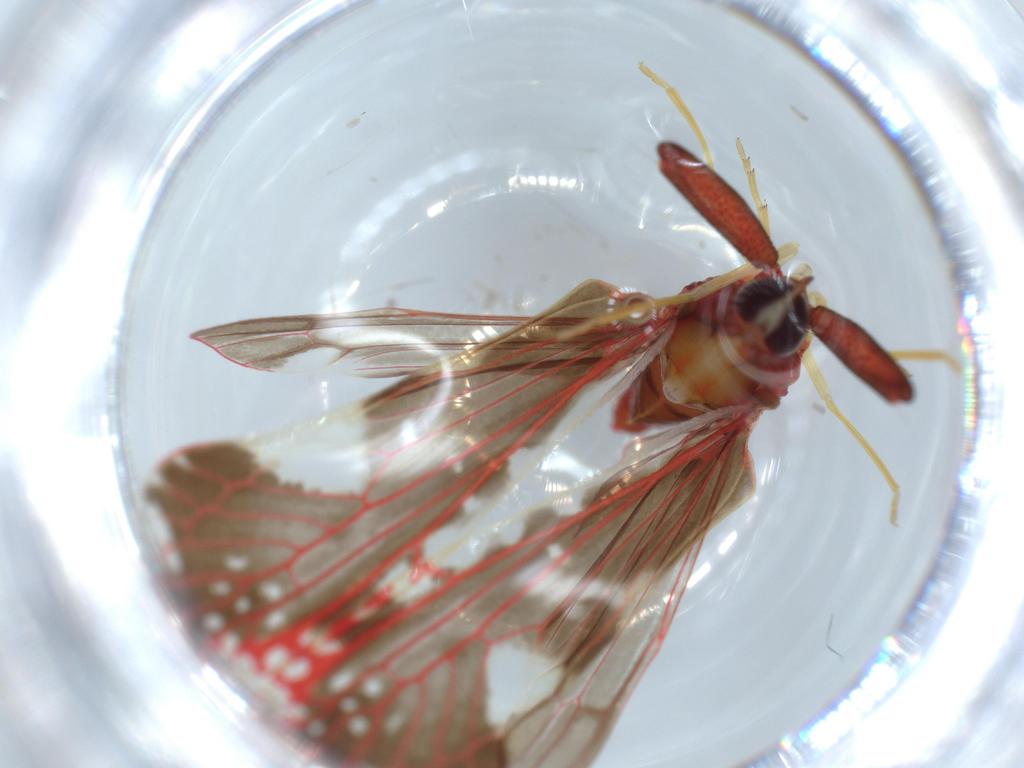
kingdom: Animalia
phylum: Arthropoda
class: Insecta
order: Hemiptera
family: Derbidae
